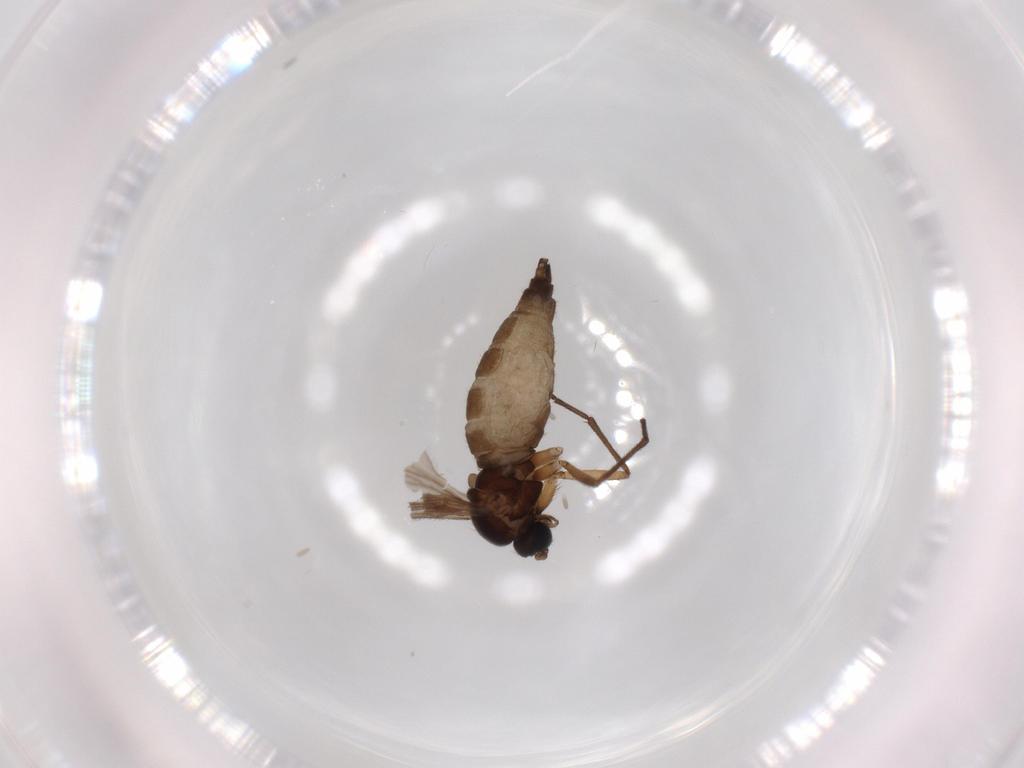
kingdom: Animalia
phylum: Arthropoda
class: Insecta
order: Diptera
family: Sciaridae
